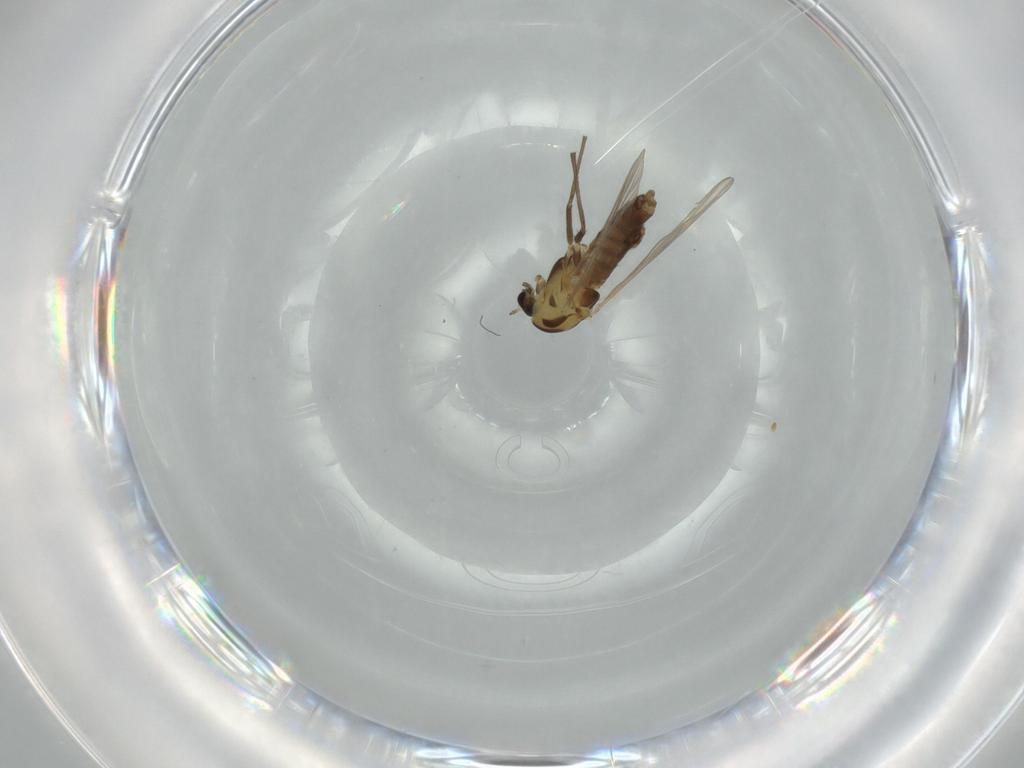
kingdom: Animalia
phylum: Arthropoda
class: Insecta
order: Diptera
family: Chironomidae
